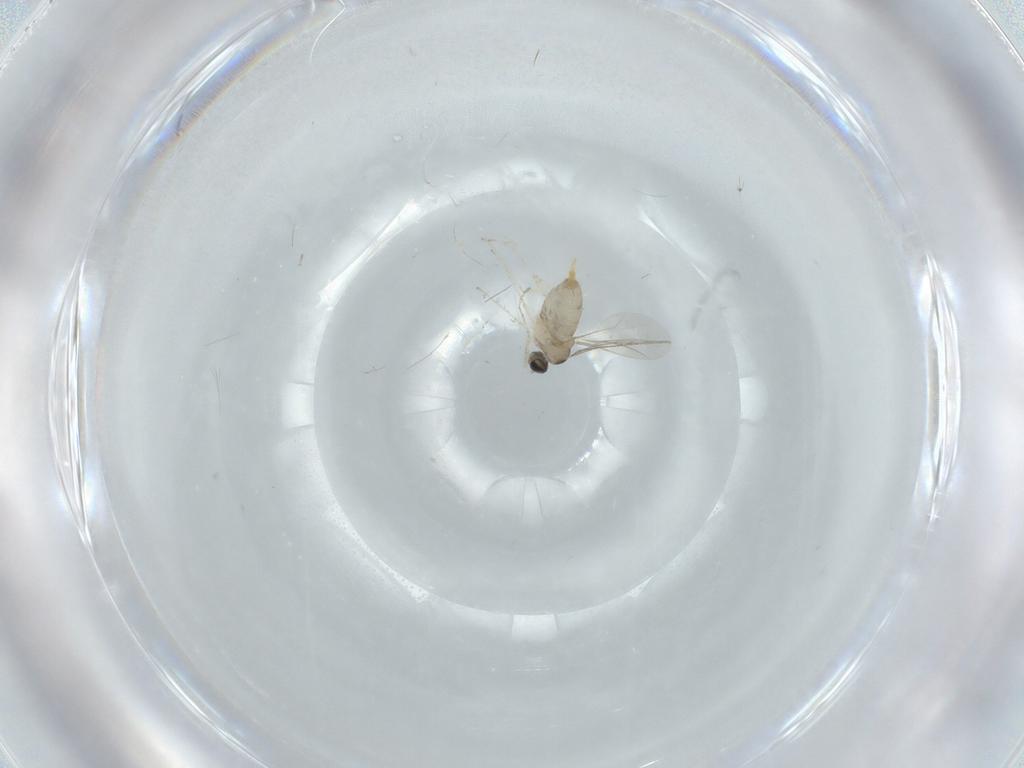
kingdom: Animalia
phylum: Arthropoda
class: Insecta
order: Diptera
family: Cecidomyiidae
